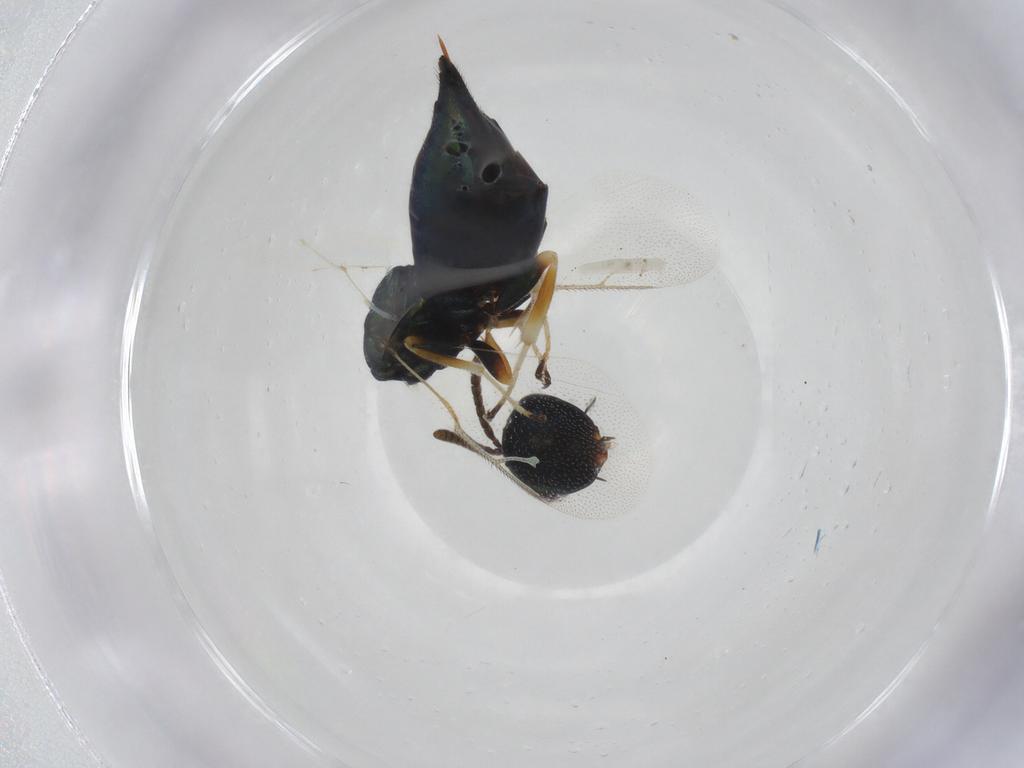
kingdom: Animalia
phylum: Arthropoda
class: Insecta
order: Hymenoptera
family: Pteromalidae
